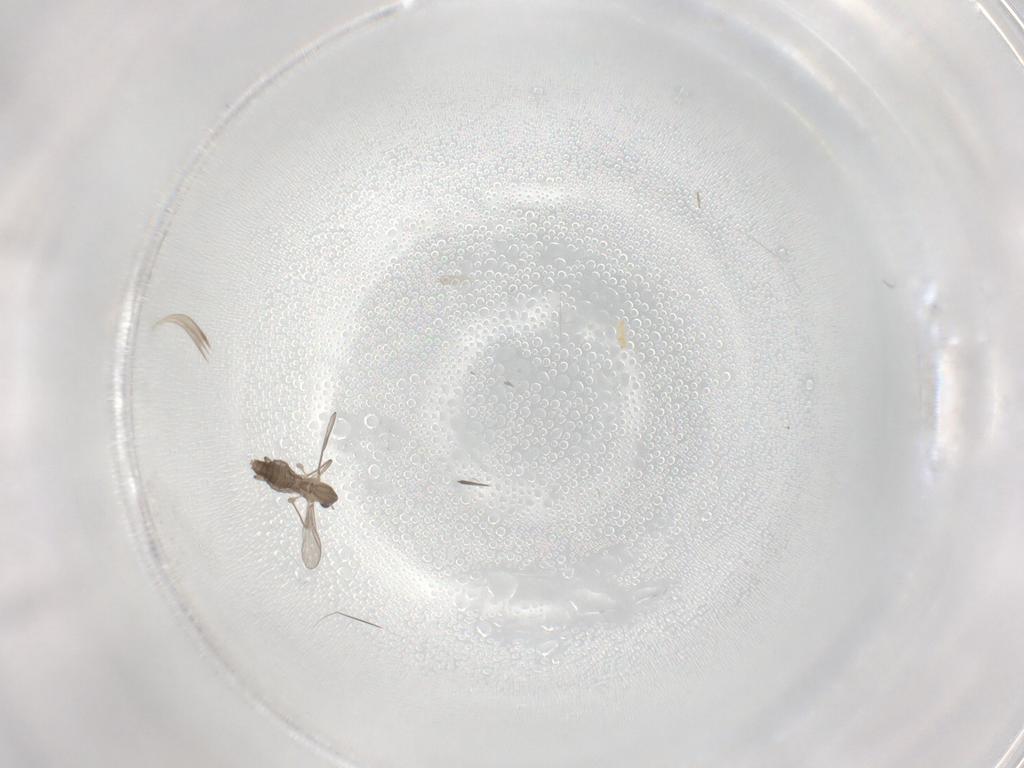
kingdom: Animalia
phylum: Arthropoda
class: Insecta
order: Diptera
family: Chironomidae
